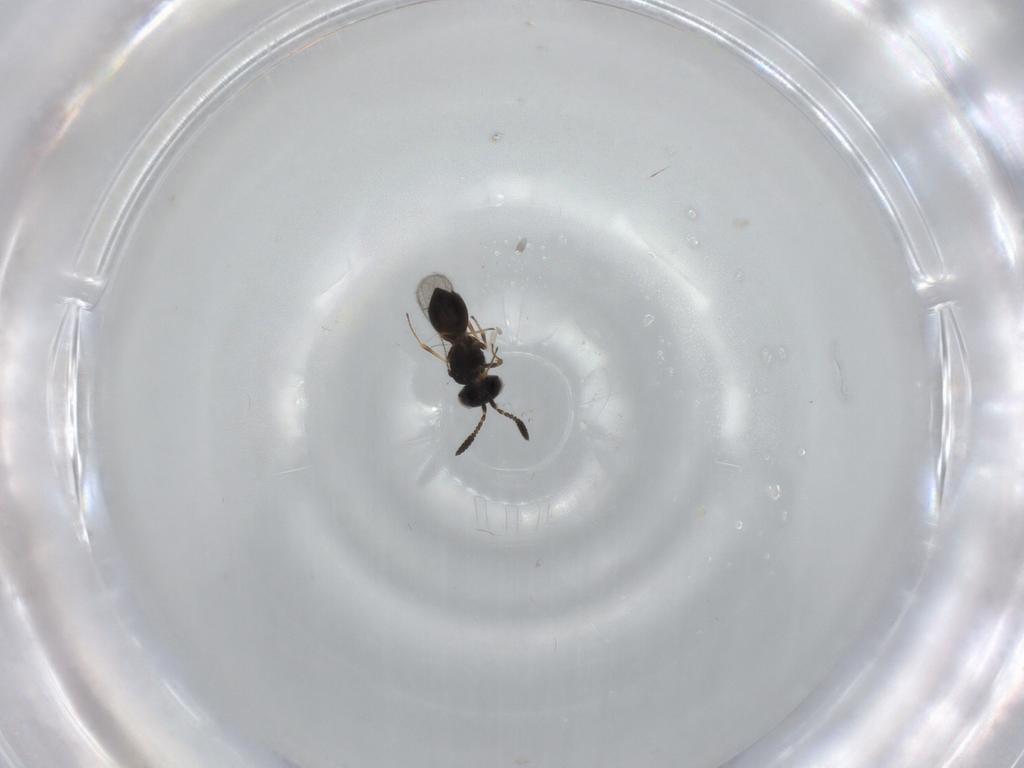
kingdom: Animalia
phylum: Arthropoda
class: Insecta
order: Hymenoptera
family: Scelionidae
